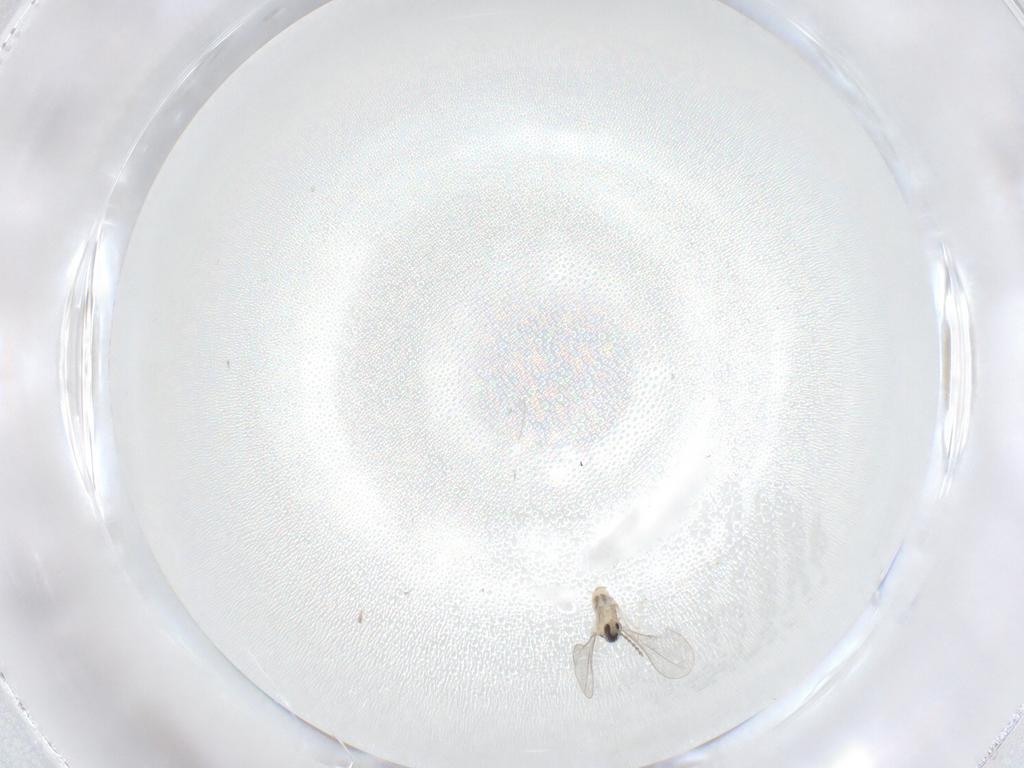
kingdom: Animalia
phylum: Arthropoda
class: Insecta
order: Diptera
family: Cecidomyiidae
